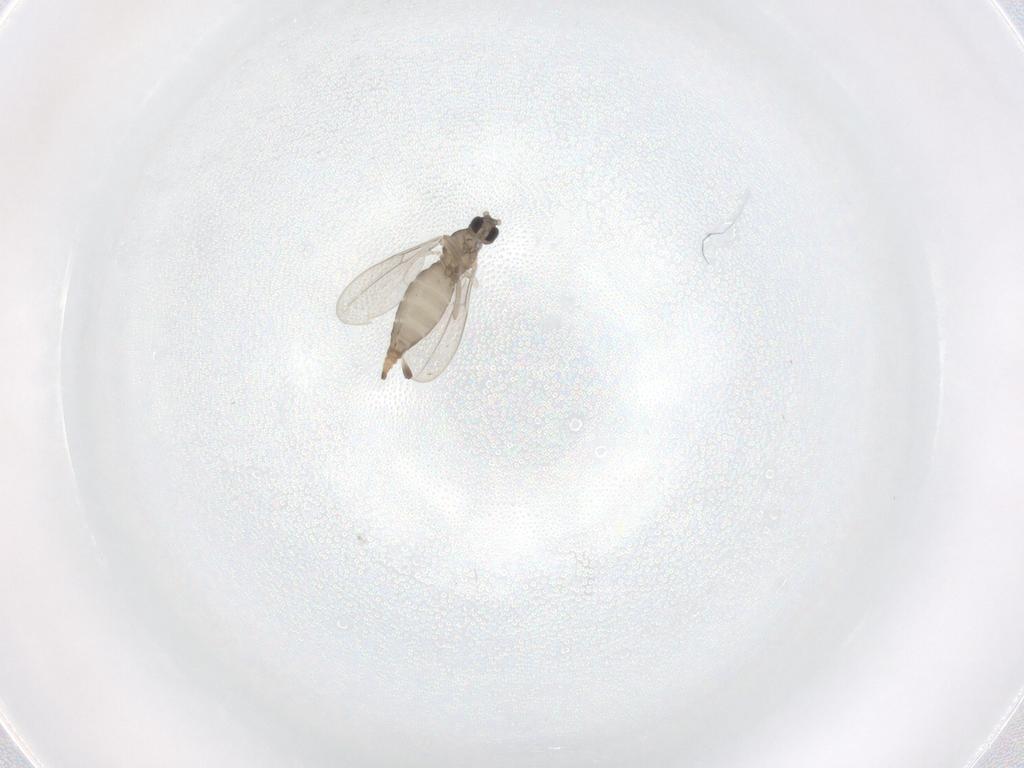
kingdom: Animalia
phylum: Arthropoda
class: Insecta
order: Diptera
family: Cecidomyiidae
